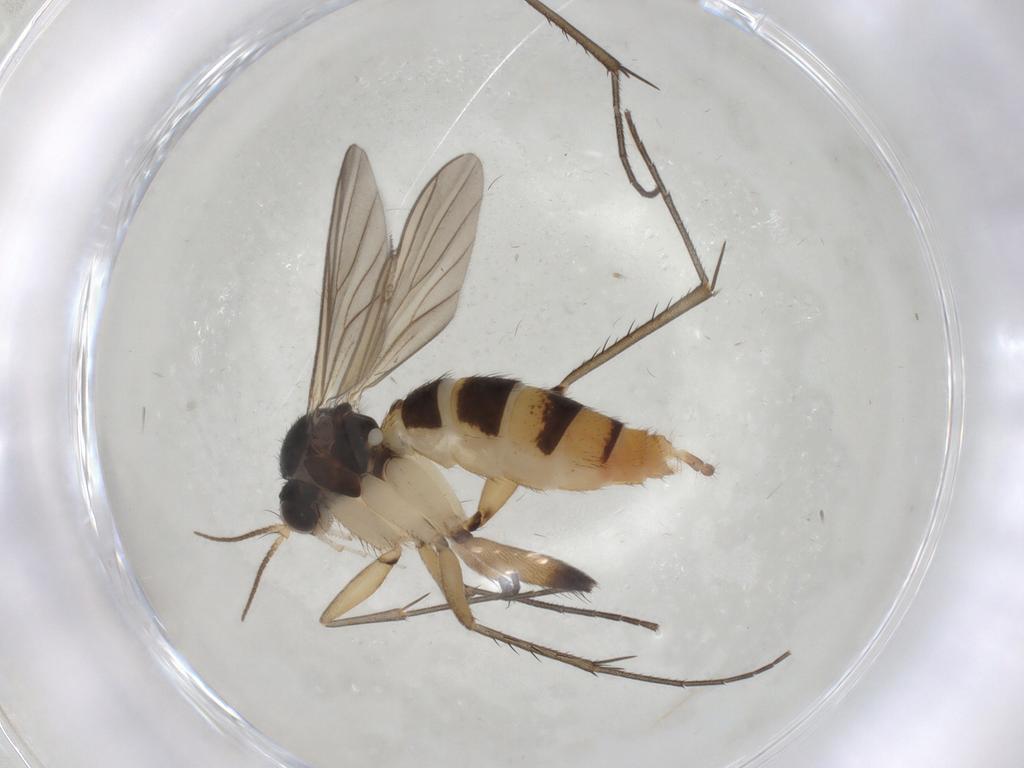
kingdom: Animalia
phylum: Arthropoda
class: Insecta
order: Diptera
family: Mycetophilidae
